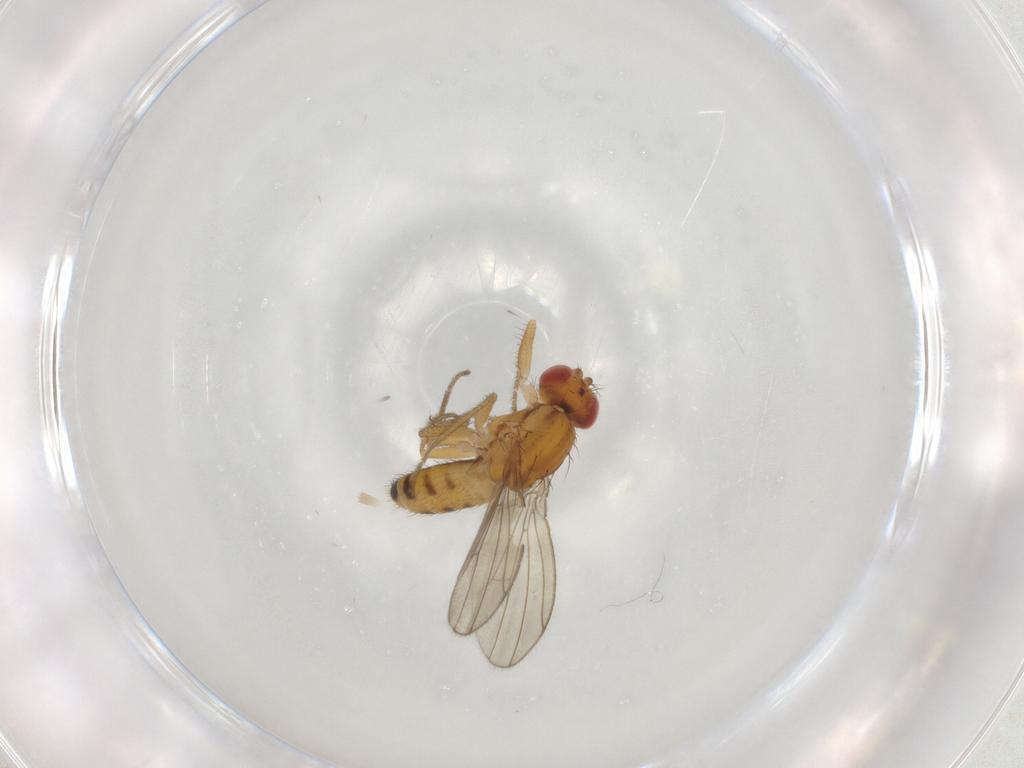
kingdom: Animalia
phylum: Arthropoda
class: Insecta
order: Diptera
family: Drosophilidae
